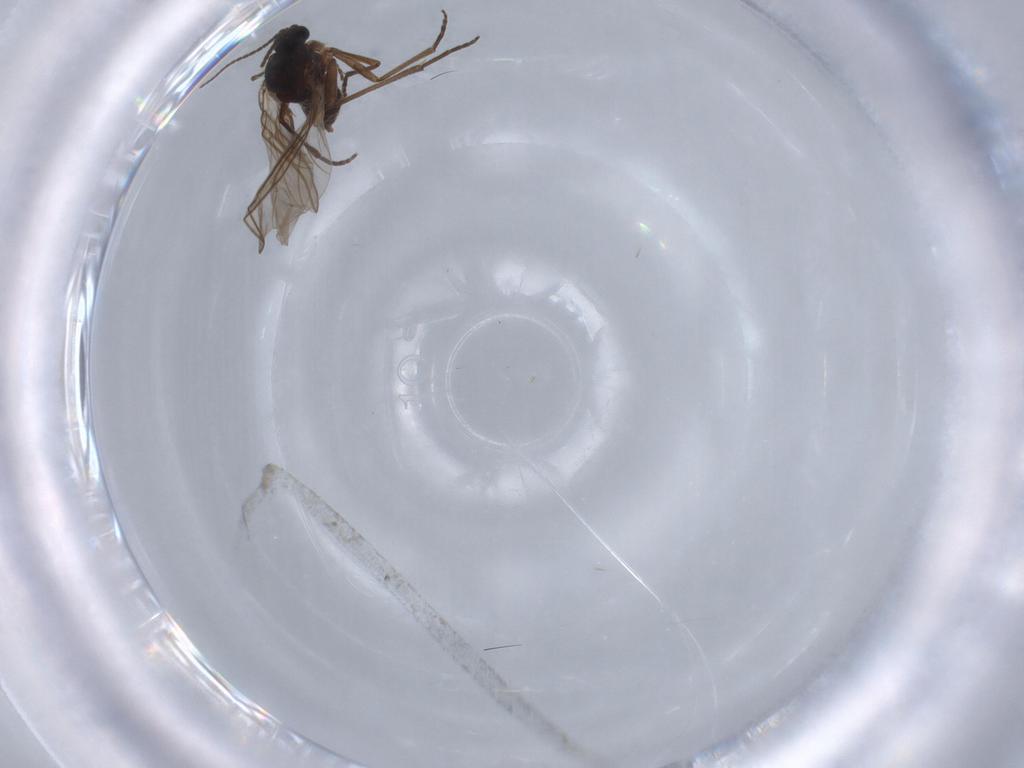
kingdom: Animalia
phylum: Arthropoda
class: Insecta
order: Diptera
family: Sciaridae
